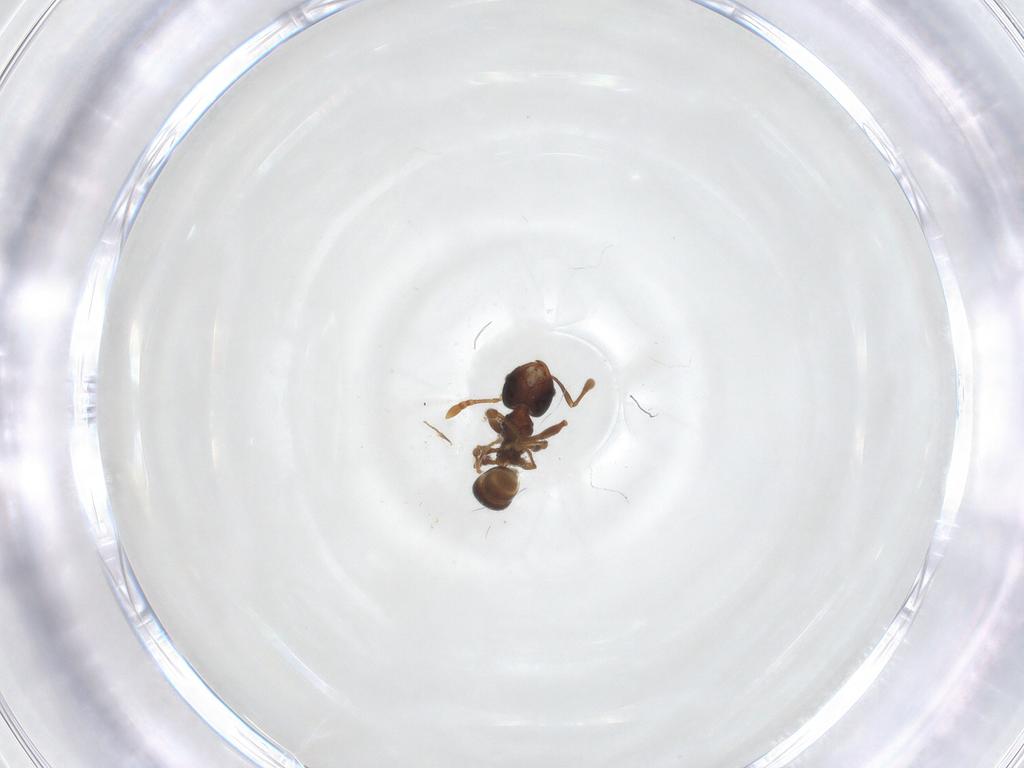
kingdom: Animalia
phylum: Arthropoda
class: Insecta
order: Hymenoptera
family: Formicidae
